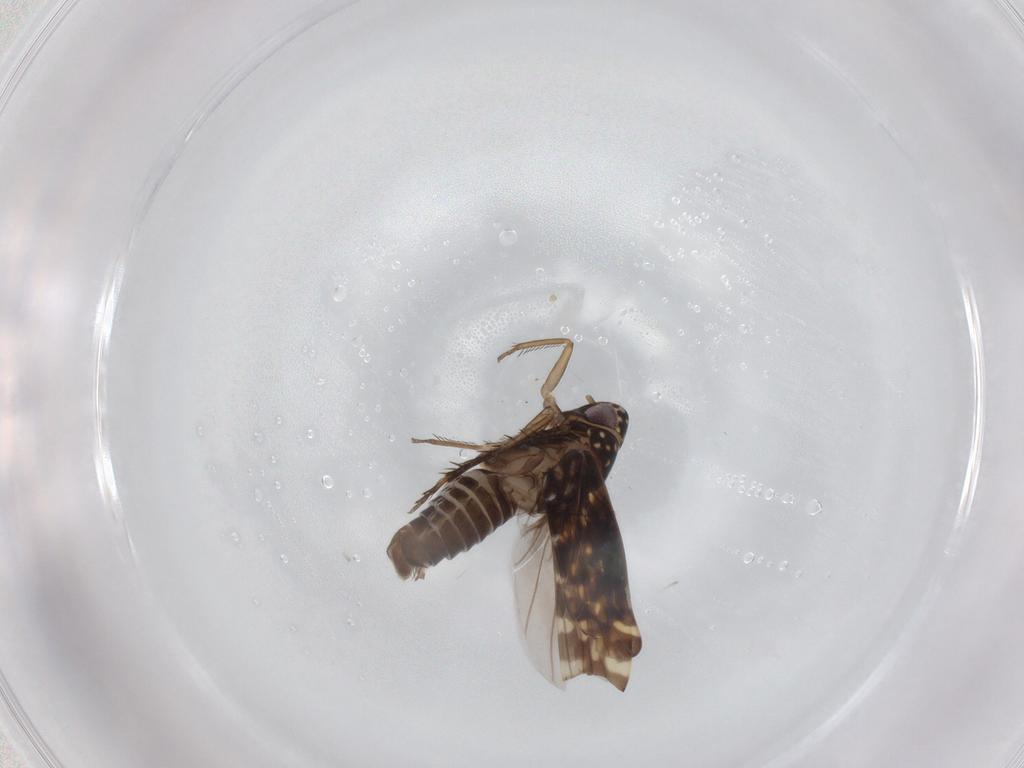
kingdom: Animalia
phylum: Arthropoda
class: Insecta
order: Hemiptera
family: Cicadellidae
